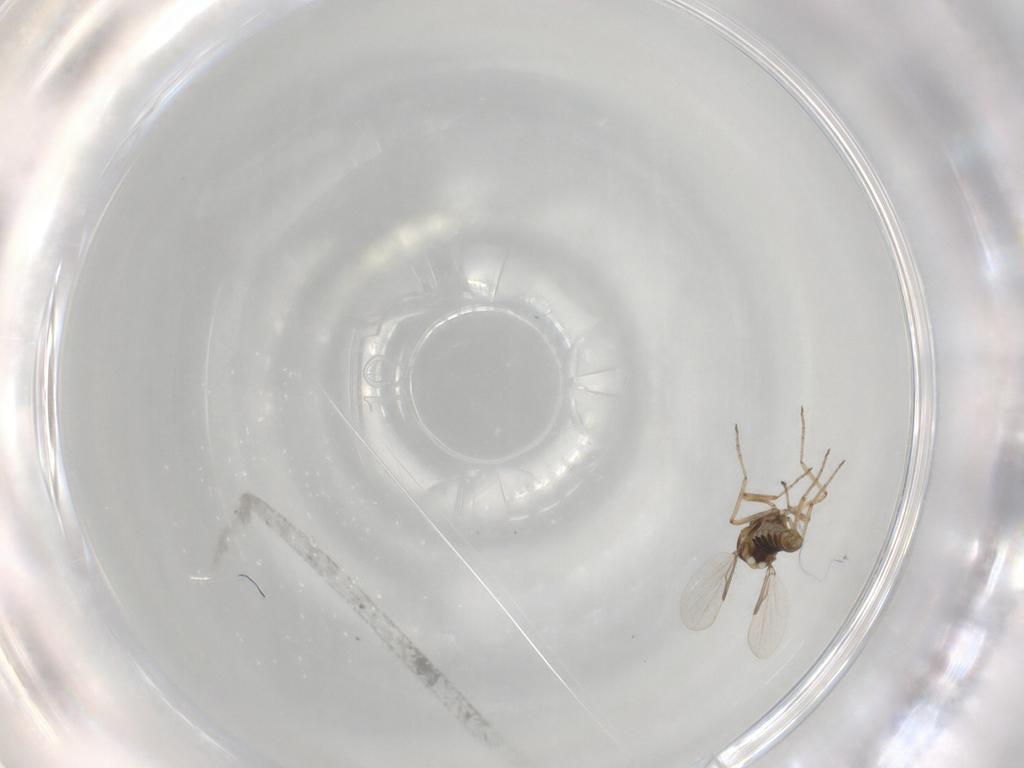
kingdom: Animalia
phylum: Arthropoda
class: Insecta
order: Diptera
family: Ceratopogonidae
